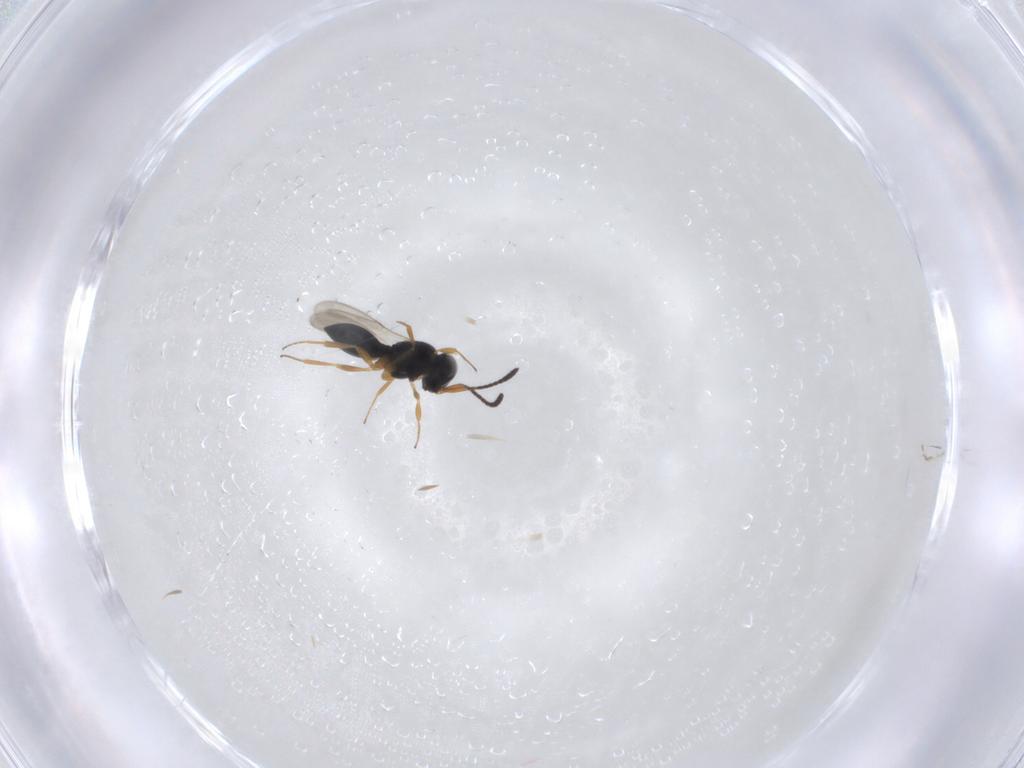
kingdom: Animalia
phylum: Arthropoda
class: Insecta
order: Hymenoptera
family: Scelionidae
